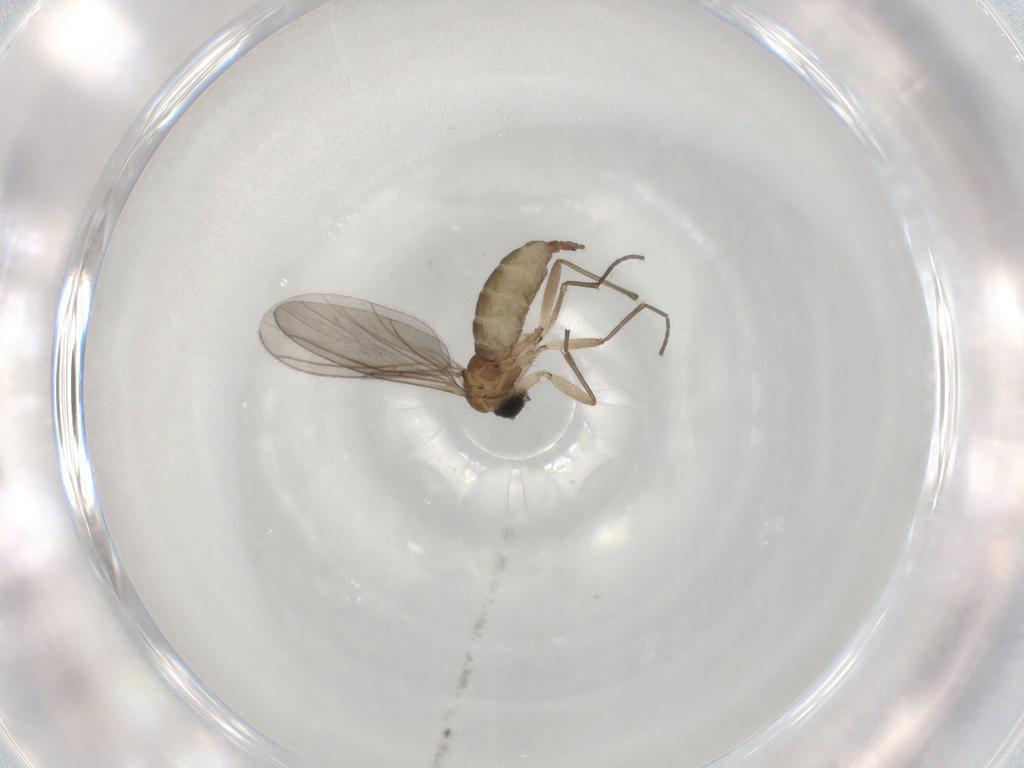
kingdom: Animalia
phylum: Arthropoda
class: Insecta
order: Diptera
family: Sciaridae
